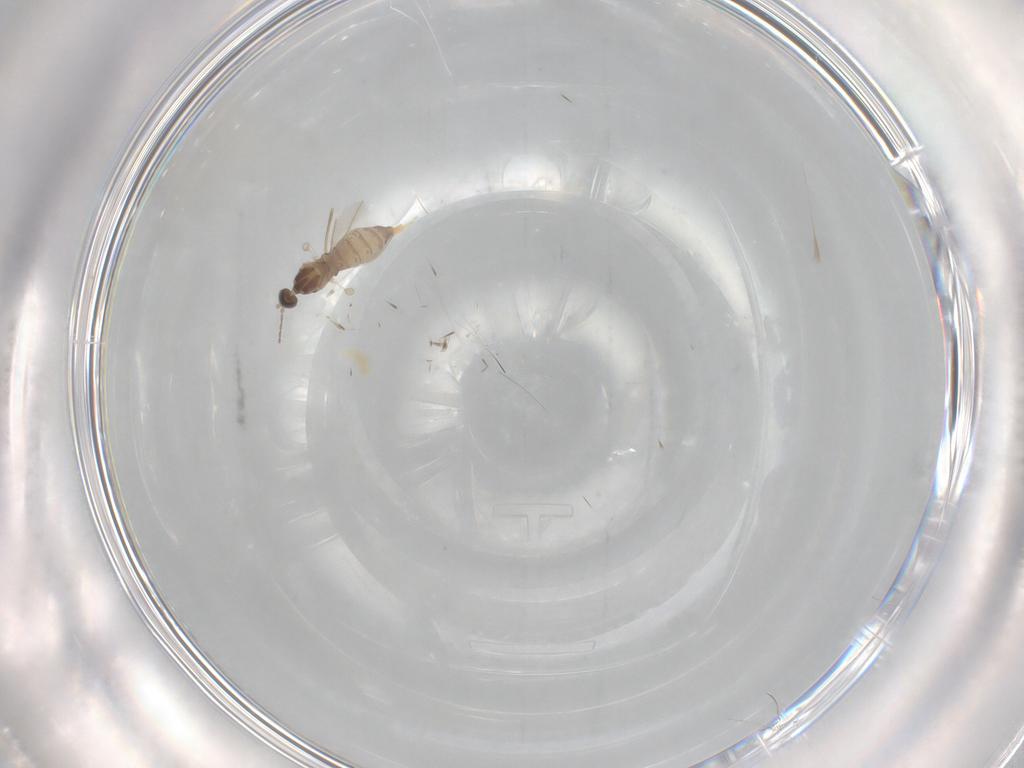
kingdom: Animalia
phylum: Arthropoda
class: Insecta
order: Diptera
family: Cecidomyiidae
